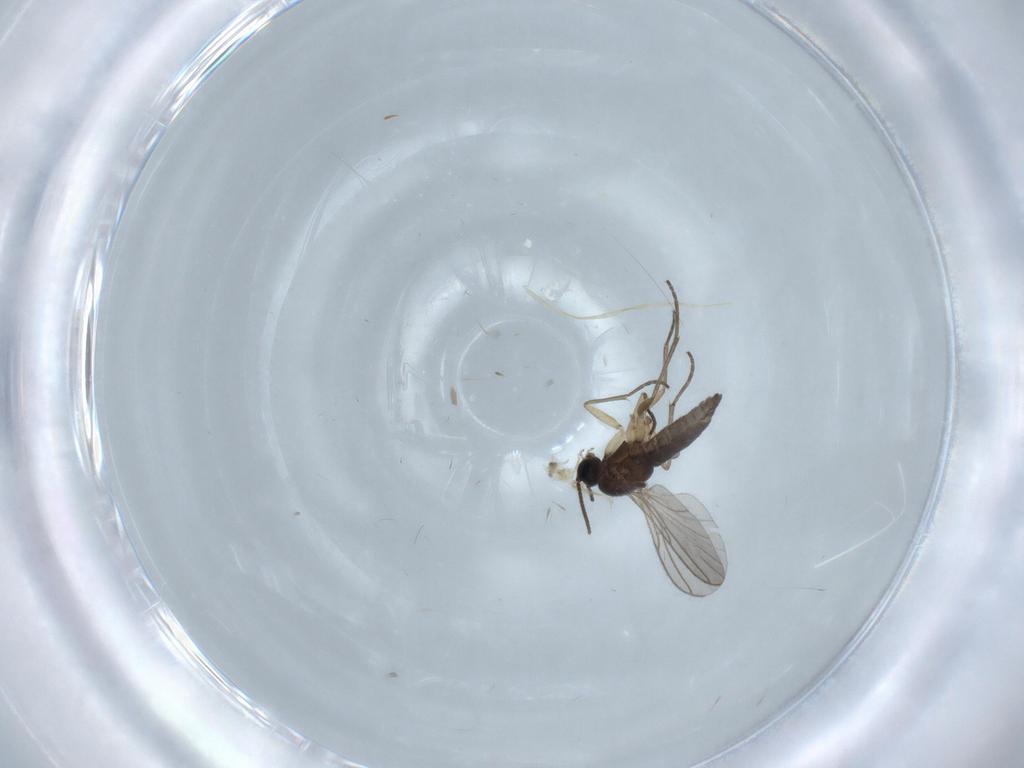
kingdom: Animalia
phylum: Arthropoda
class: Insecta
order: Diptera
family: Sciaridae
